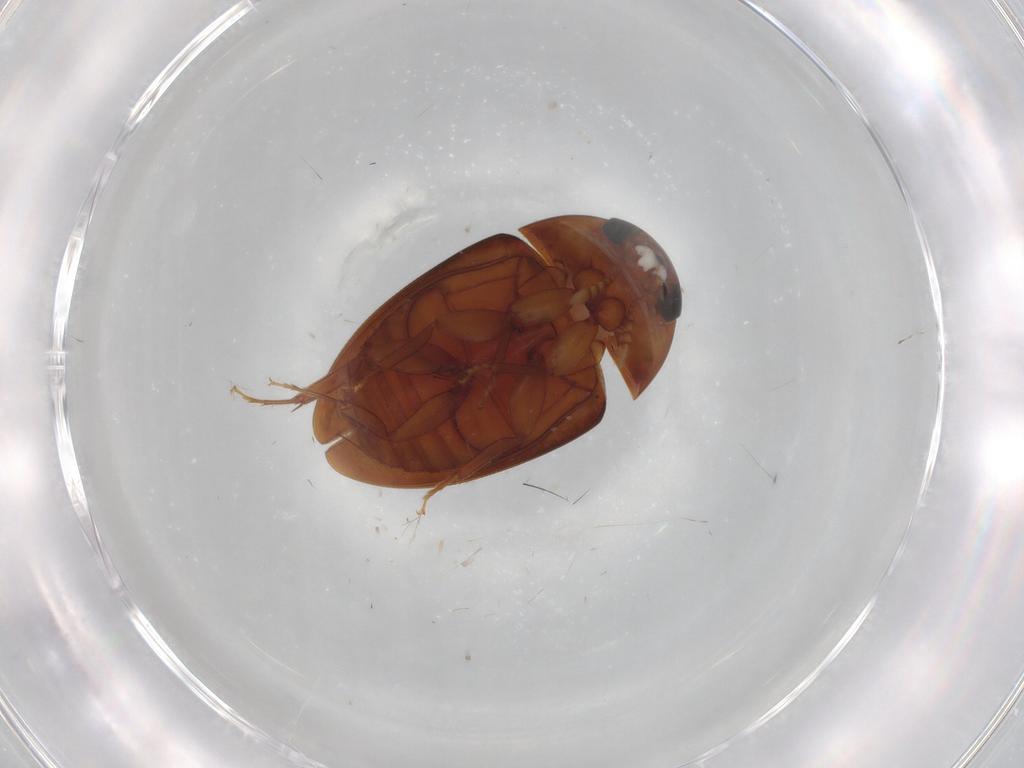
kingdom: Animalia
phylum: Arthropoda
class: Insecta
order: Coleoptera
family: Phalacridae
